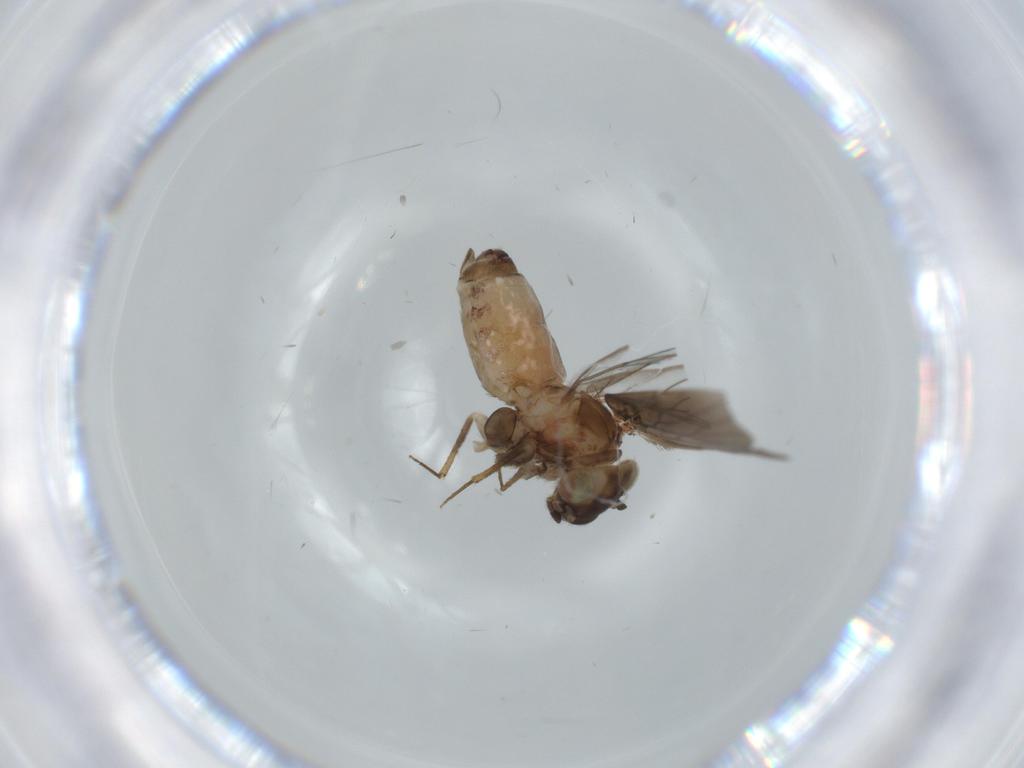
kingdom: Animalia
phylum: Arthropoda
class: Insecta
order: Psocodea
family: Lepidopsocidae
